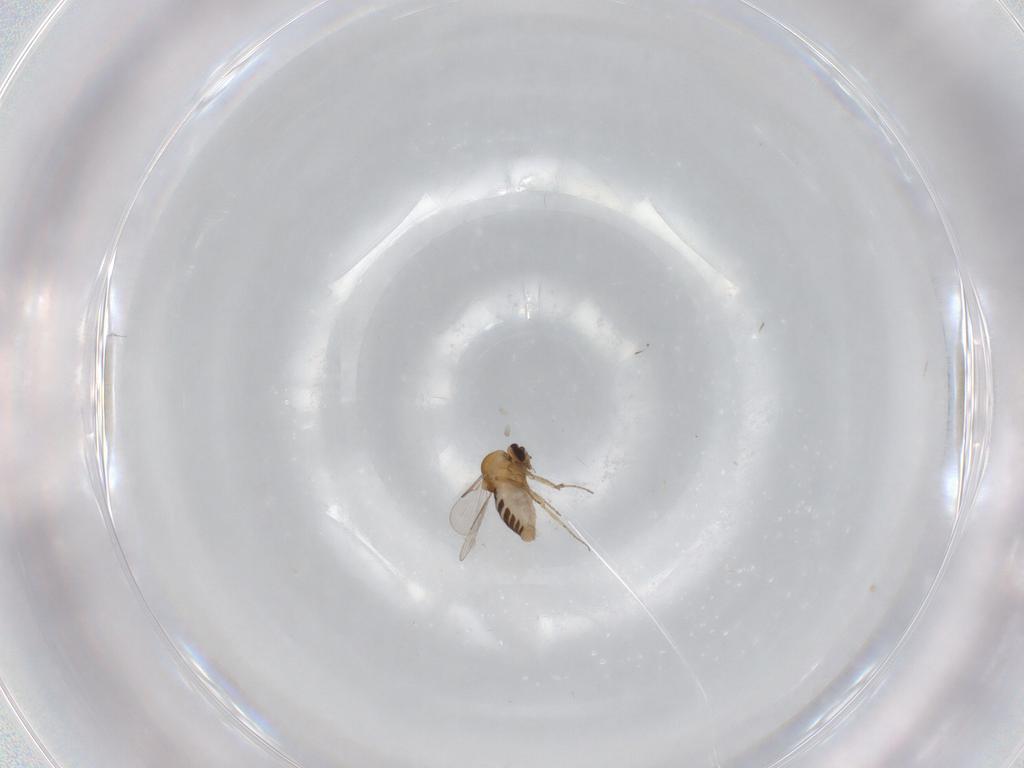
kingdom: Animalia
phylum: Arthropoda
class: Insecta
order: Diptera
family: Ceratopogonidae
